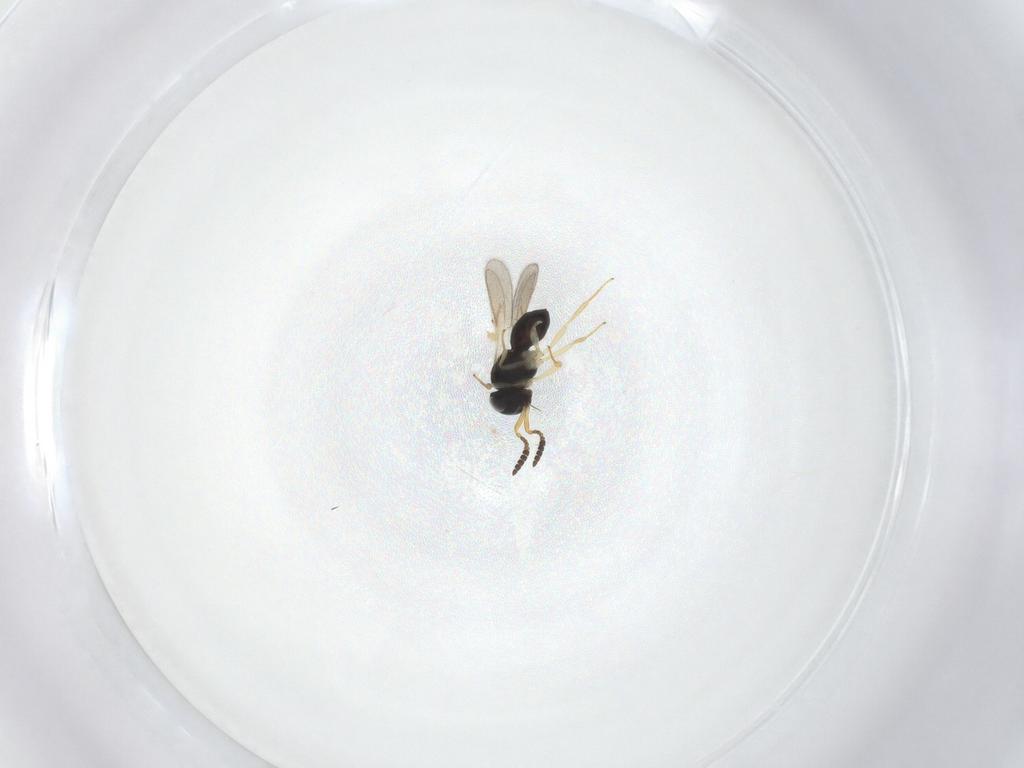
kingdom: Animalia
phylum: Arthropoda
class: Insecta
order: Hymenoptera
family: Scelionidae
